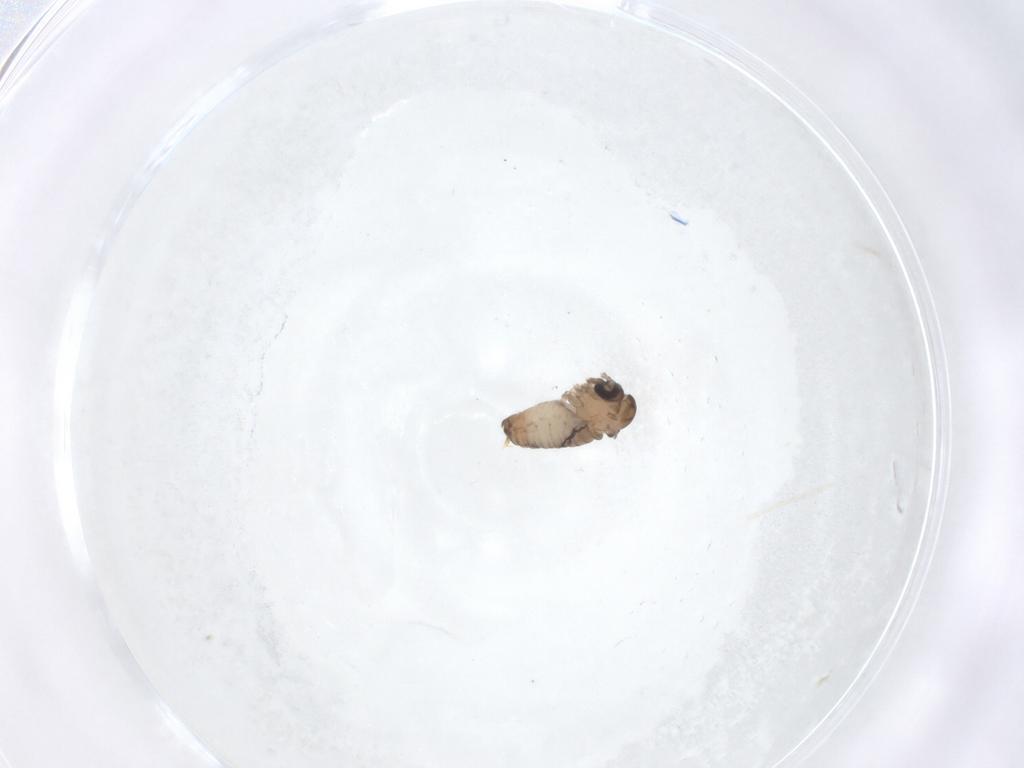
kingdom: Animalia
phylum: Arthropoda
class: Insecta
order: Diptera
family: Psychodidae
